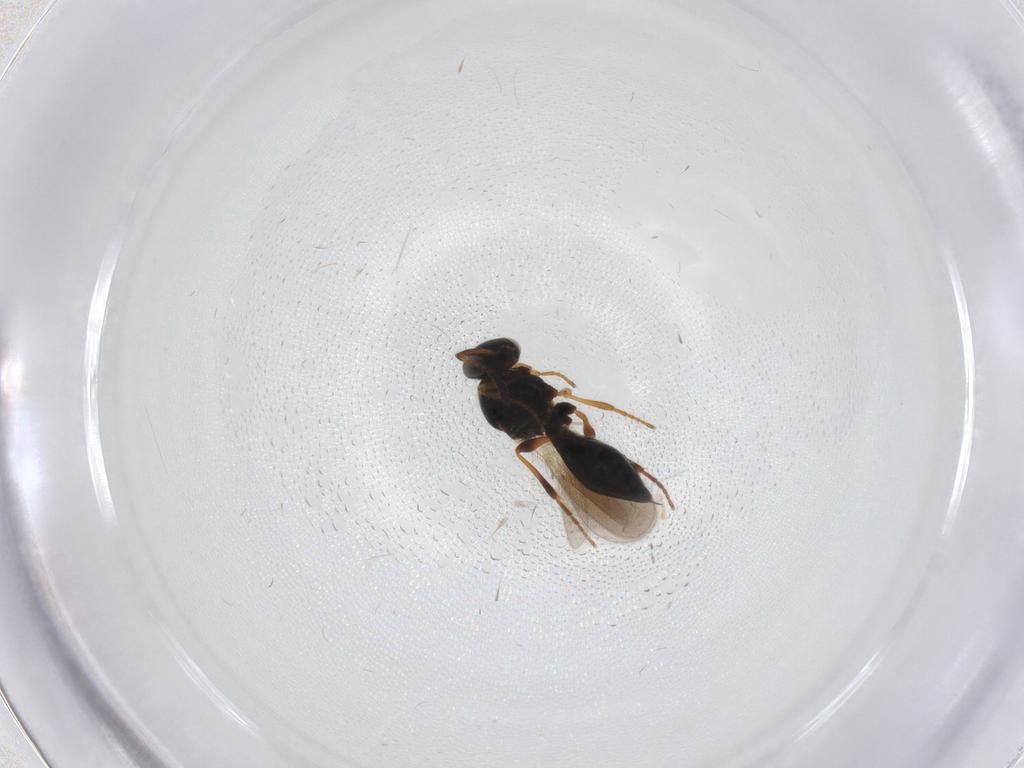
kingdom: Animalia
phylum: Arthropoda
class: Insecta
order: Hymenoptera
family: Platygastridae
